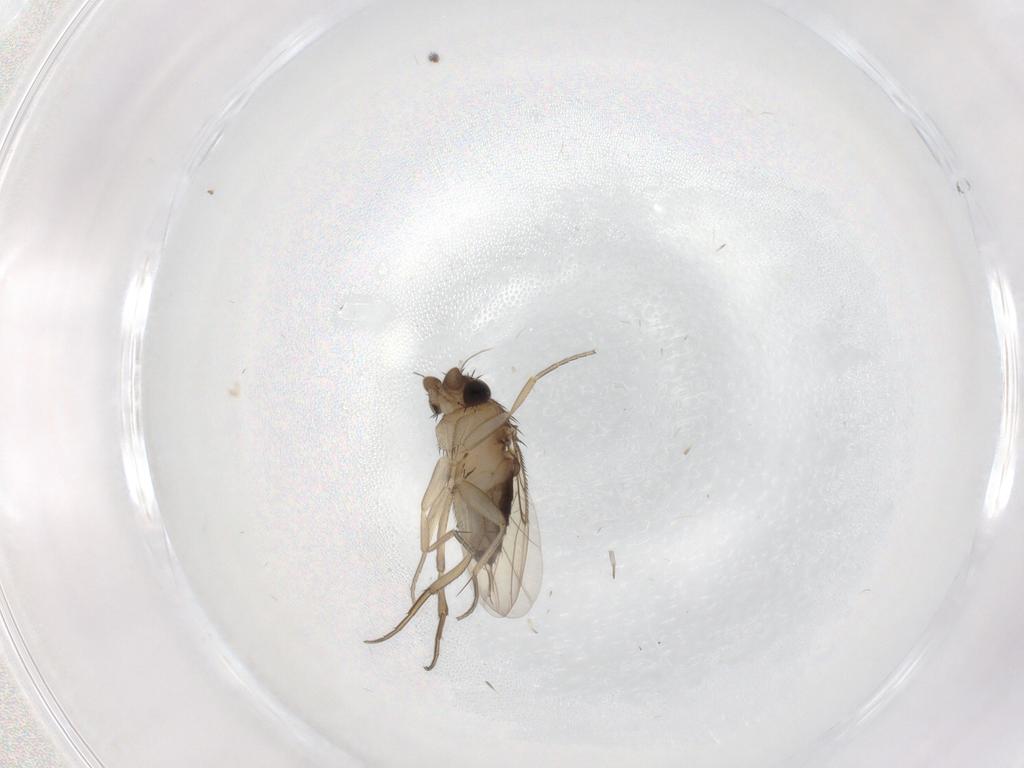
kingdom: Animalia
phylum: Arthropoda
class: Insecta
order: Diptera
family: Phoridae
